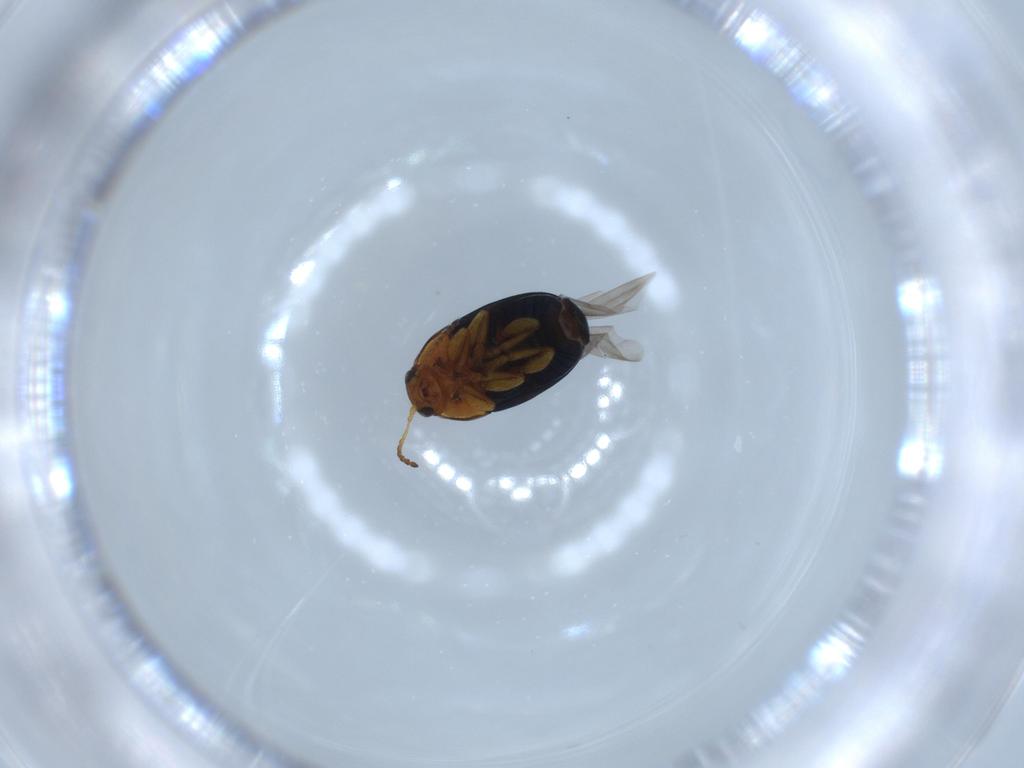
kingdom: Animalia
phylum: Arthropoda
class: Insecta
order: Coleoptera
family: Chrysomelidae
